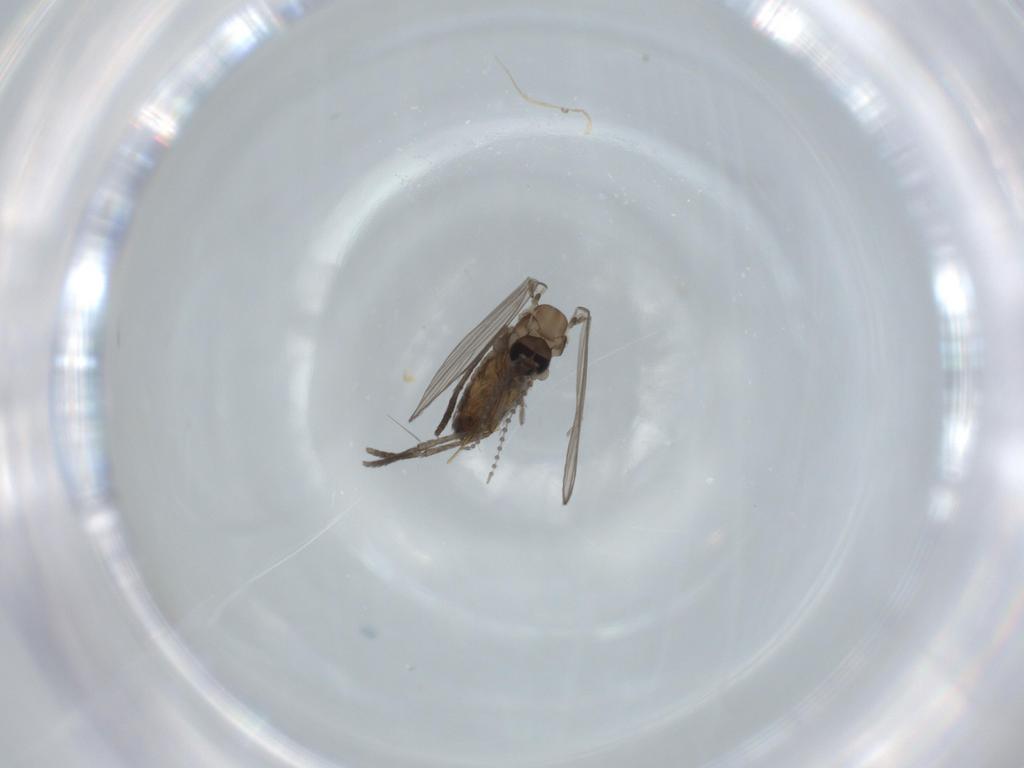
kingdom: Animalia
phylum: Arthropoda
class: Insecta
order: Diptera
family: Psychodidae
